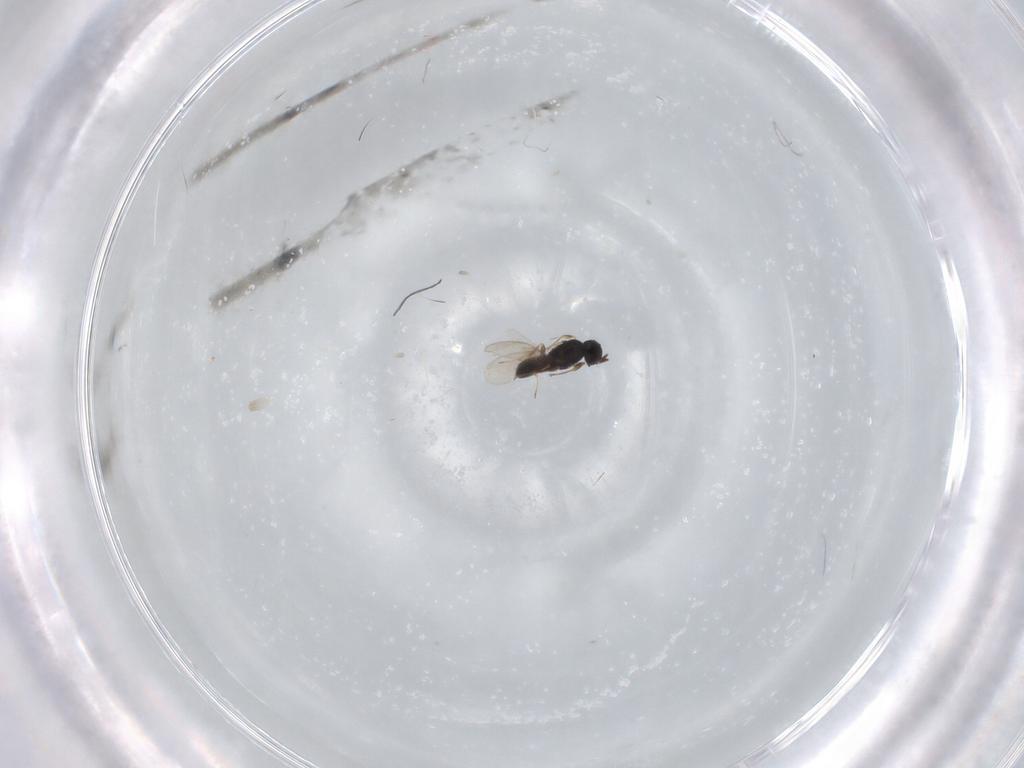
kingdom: Animalia
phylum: Arthropoda
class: Insecta
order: Hymenoptera
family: Scelionidae
